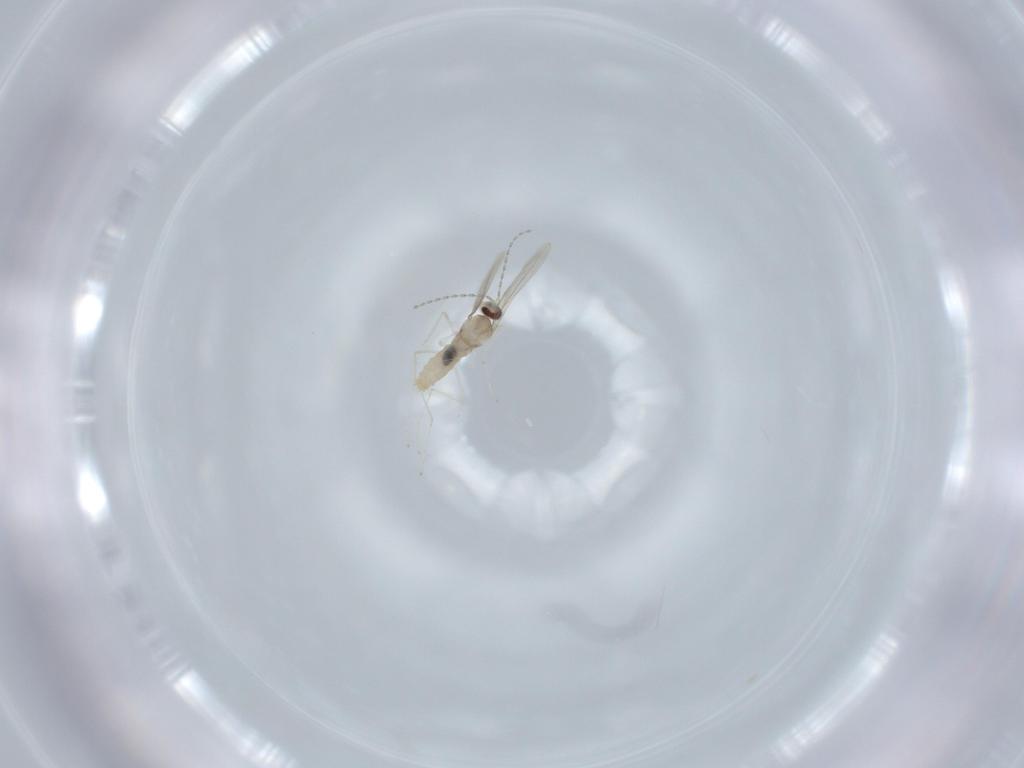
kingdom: Animalia
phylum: Arthropoda
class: Insecta
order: Diptera
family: Cecidomyiidae
